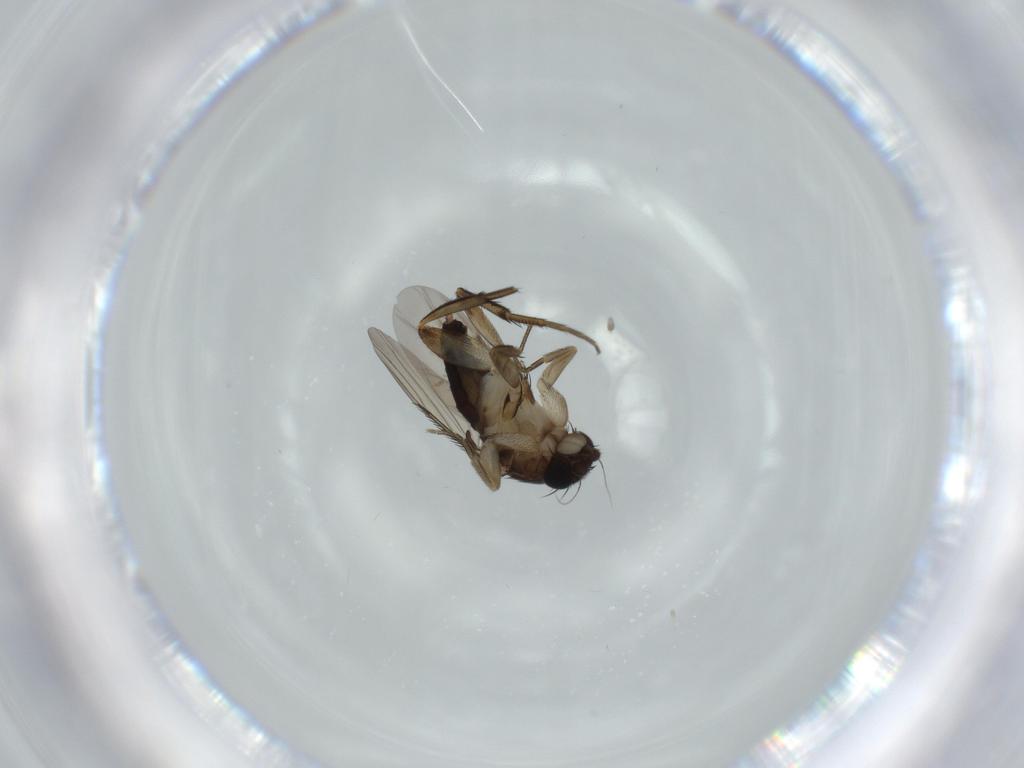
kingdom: Animalia
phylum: Arthropoda
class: Insecta
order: Diptera
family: Phoridae
